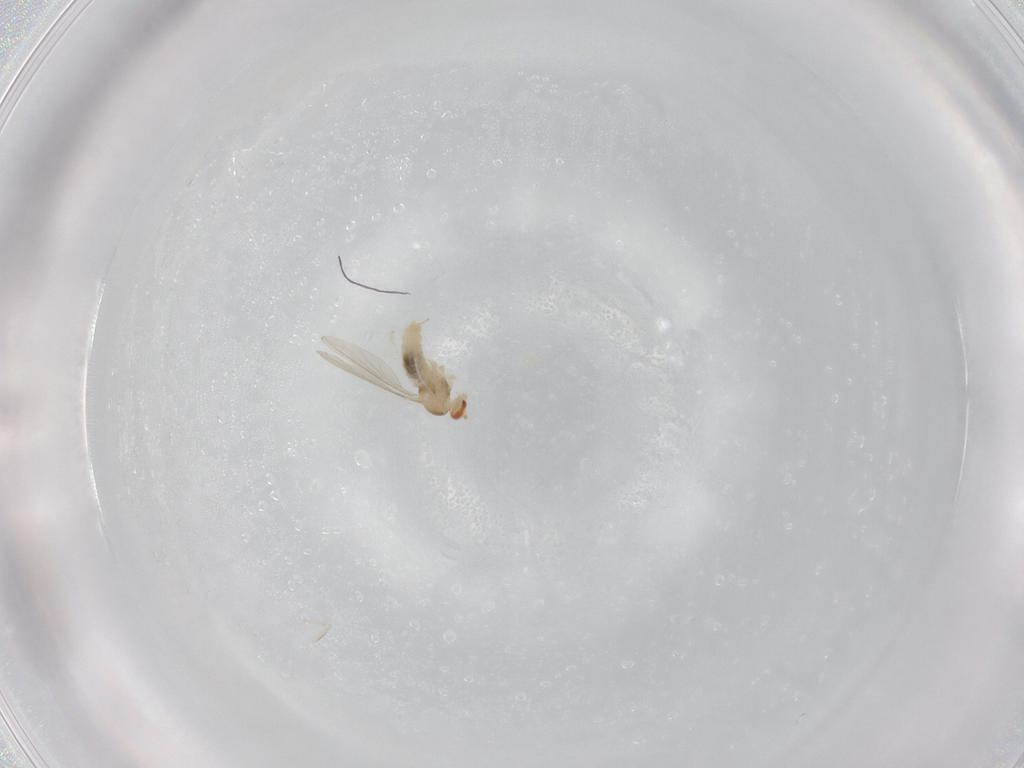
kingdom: Animalia
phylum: Arthropoda
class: Insecta
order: Diptera
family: Cecidomyiidae
